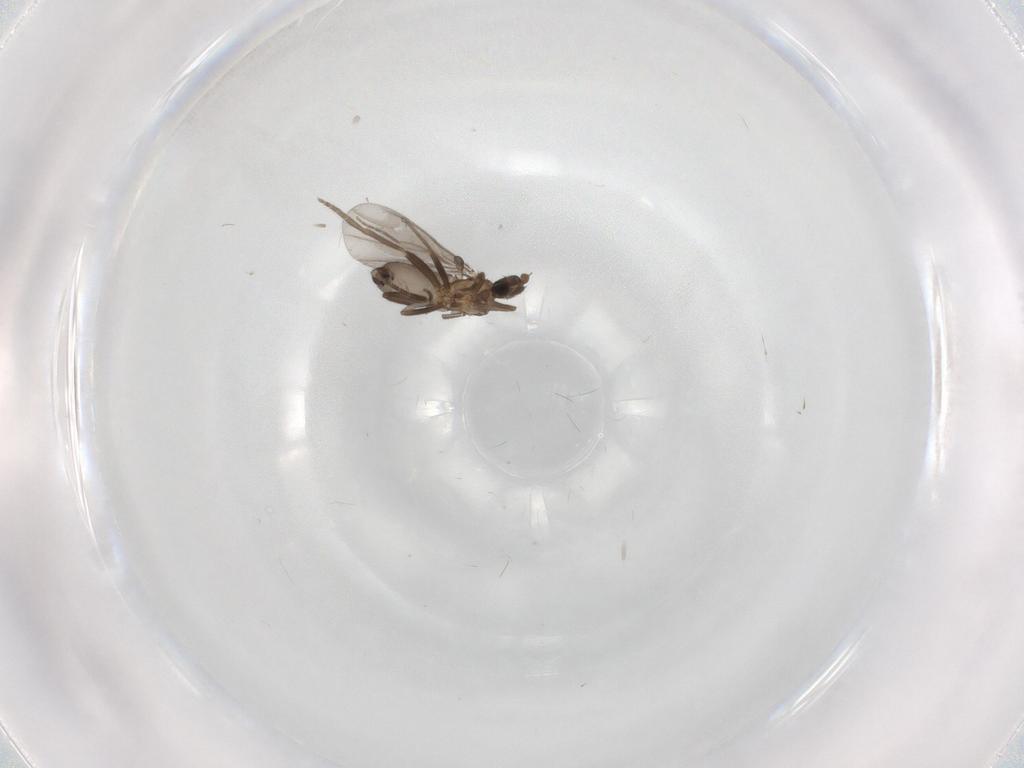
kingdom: Animalia
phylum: Arthropoda
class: Insecta
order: Diptera
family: Phoridae
